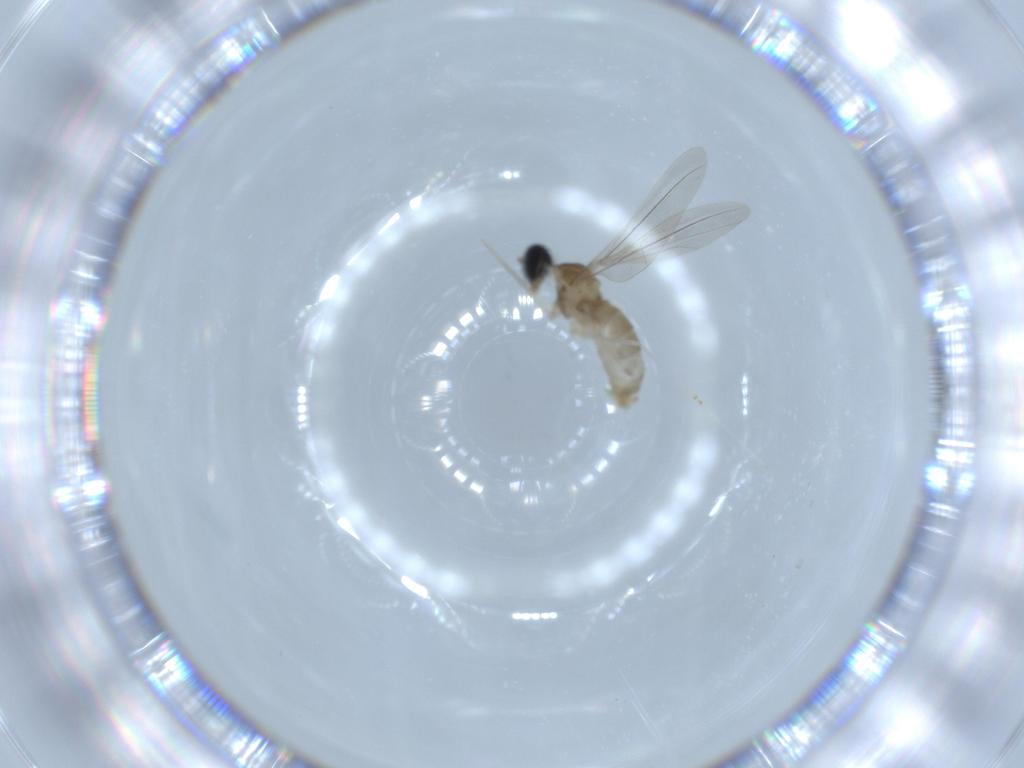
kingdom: Animalia
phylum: Arthropoda
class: Insecta
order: Diptera
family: Cecidomyiidae
